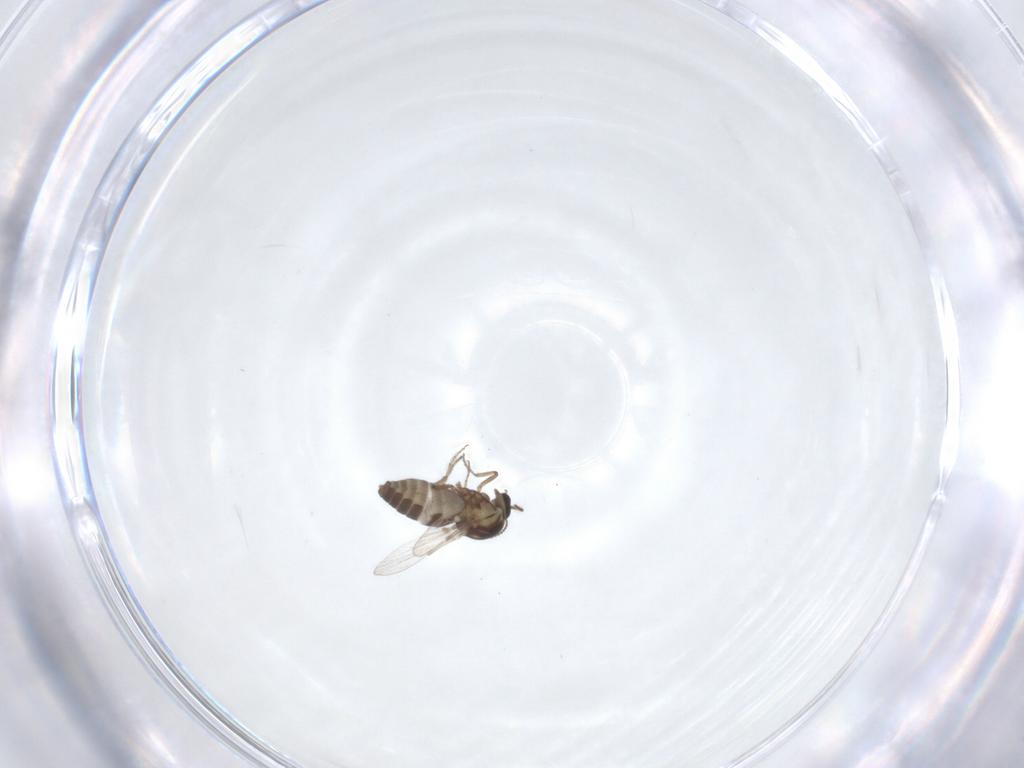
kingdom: Animalia
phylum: Arthropoda
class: Insecta
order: Diptera
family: Ceratopogonidae
